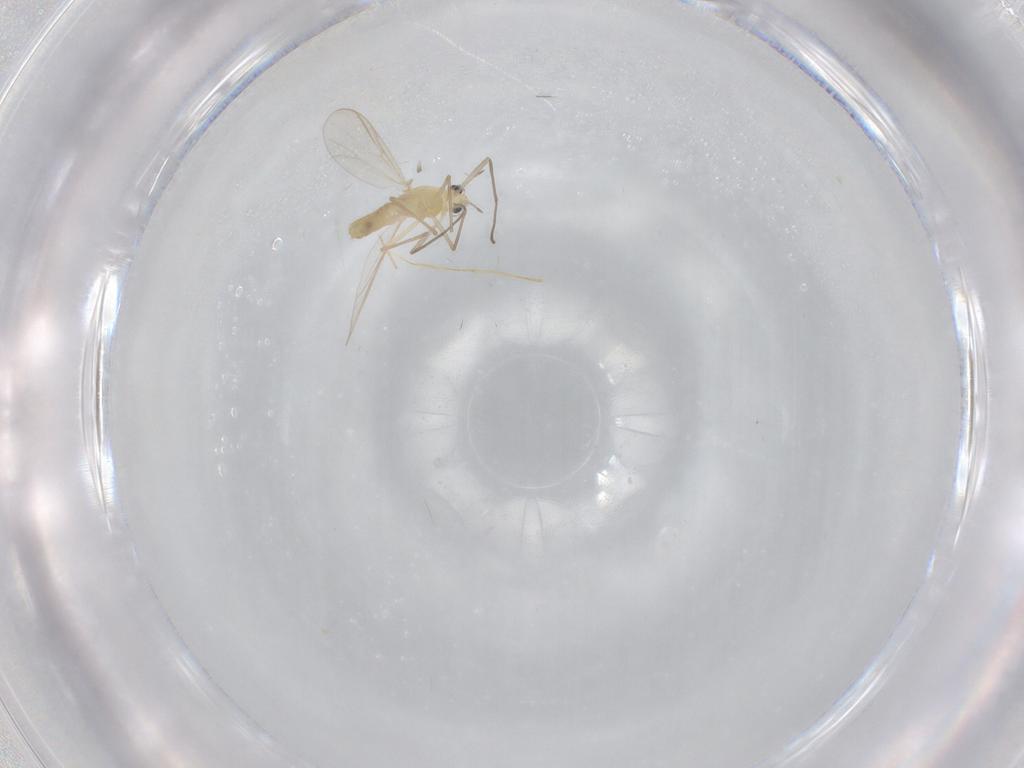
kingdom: Animalia
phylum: Arthropoda
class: Insecta
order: Diptera
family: Chironomidae
